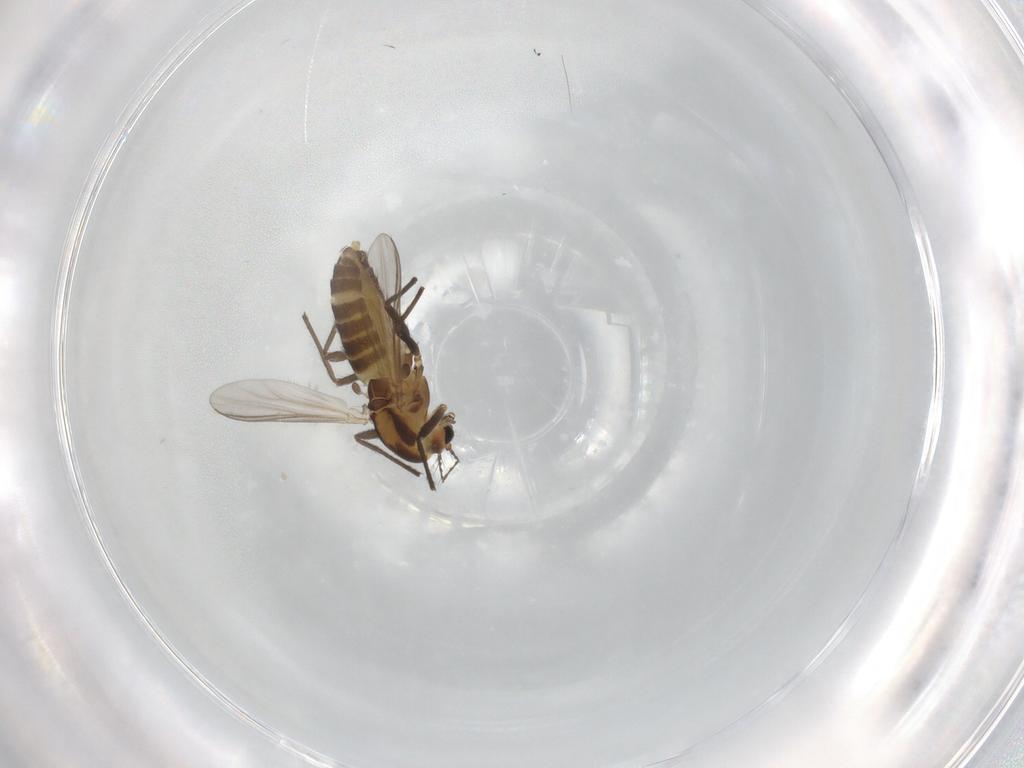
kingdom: Animalia
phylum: Arthropoda
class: Insecta
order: Diptera
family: Chironomidae
